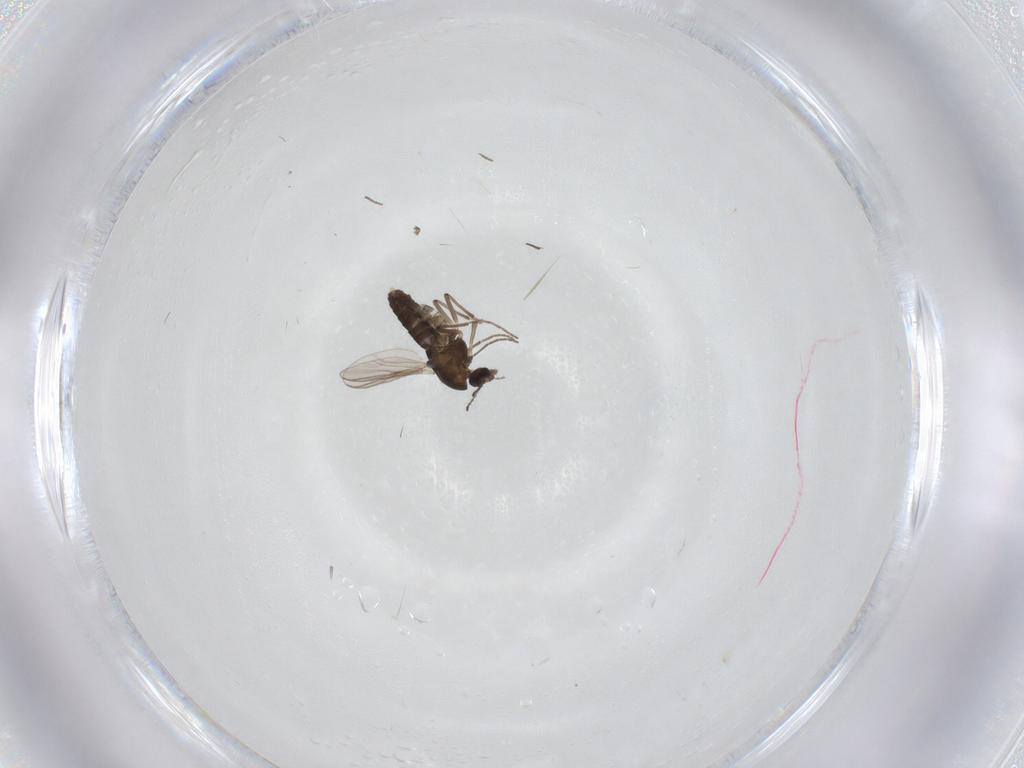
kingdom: Animalia
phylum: Arthropoda
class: Insecta
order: Diptera
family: Chironomidae
